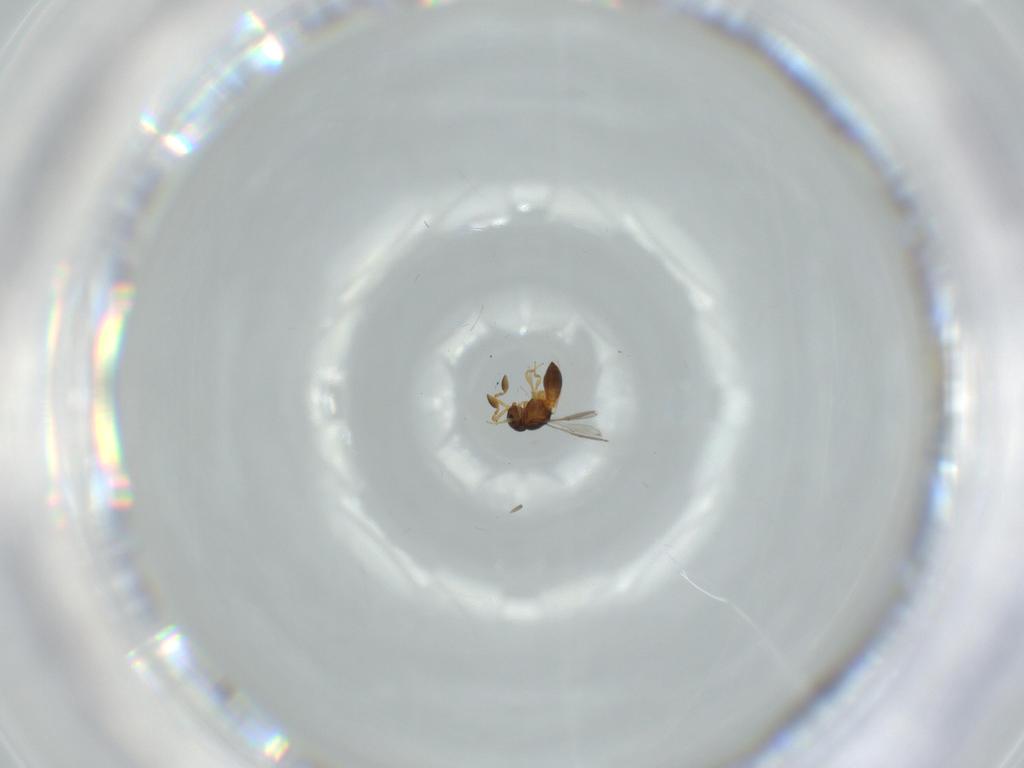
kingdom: Animalia
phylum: Arthropoda
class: Insecta
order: Hymenoptera
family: Scelionidae
